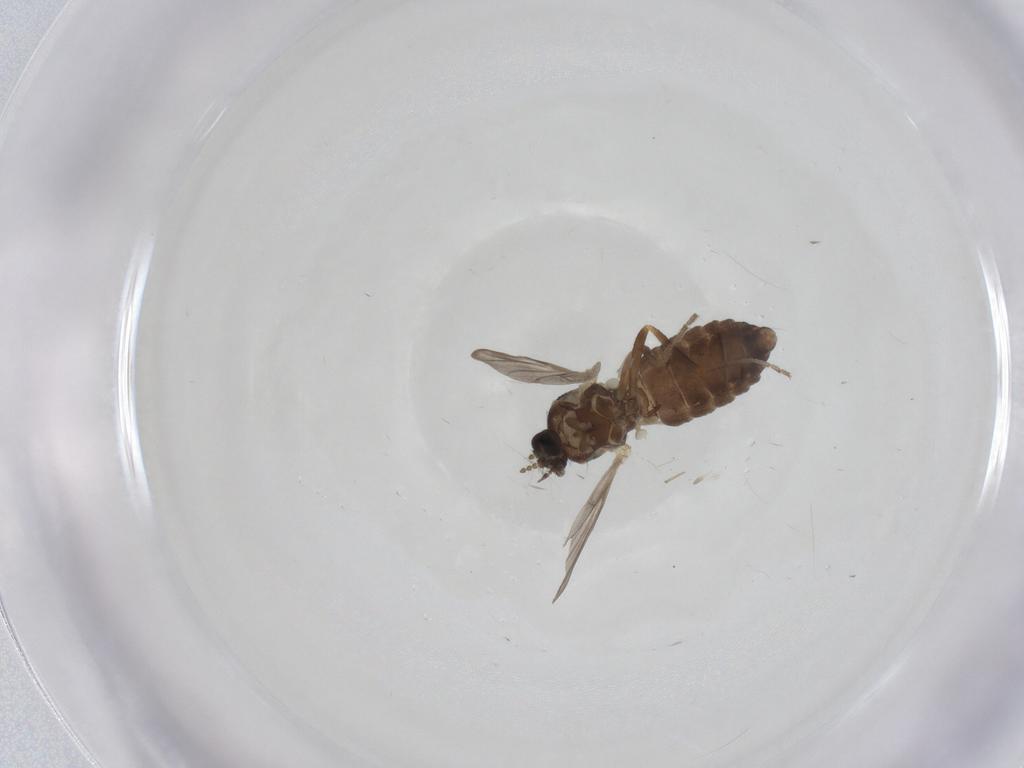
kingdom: Animalia
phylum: Arthropoda
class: Insecta
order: Diptera
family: Ceratopogonidae
